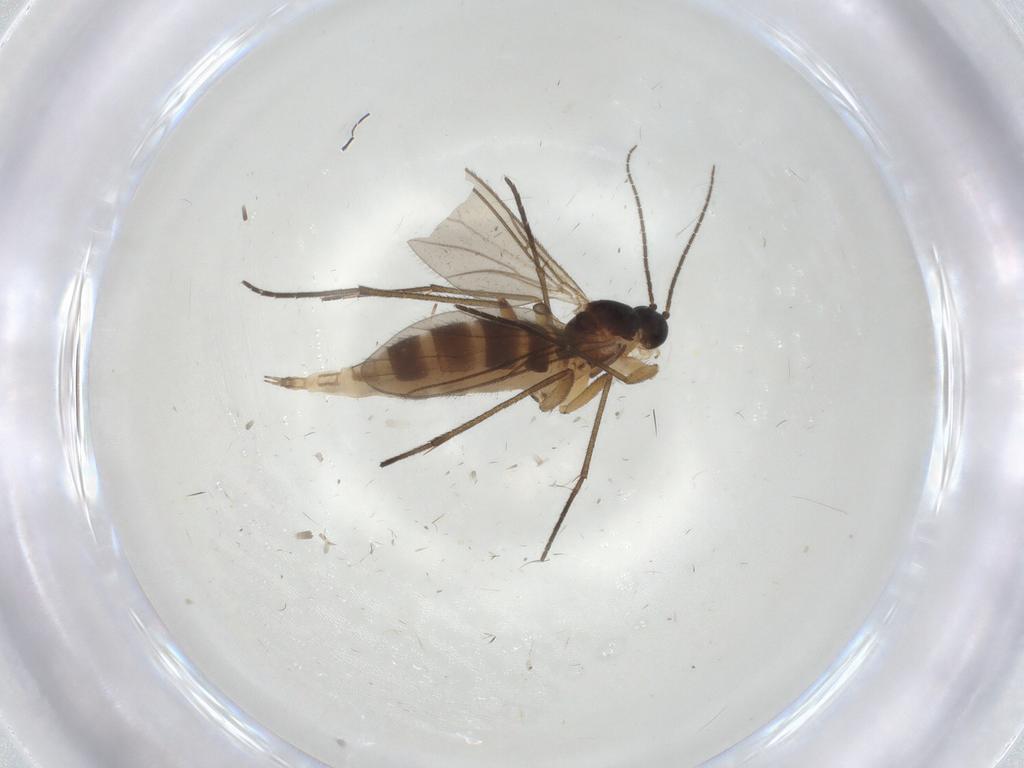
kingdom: Animalia
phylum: Arthropoda
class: Insecta
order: Diptera
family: Sciaridae
